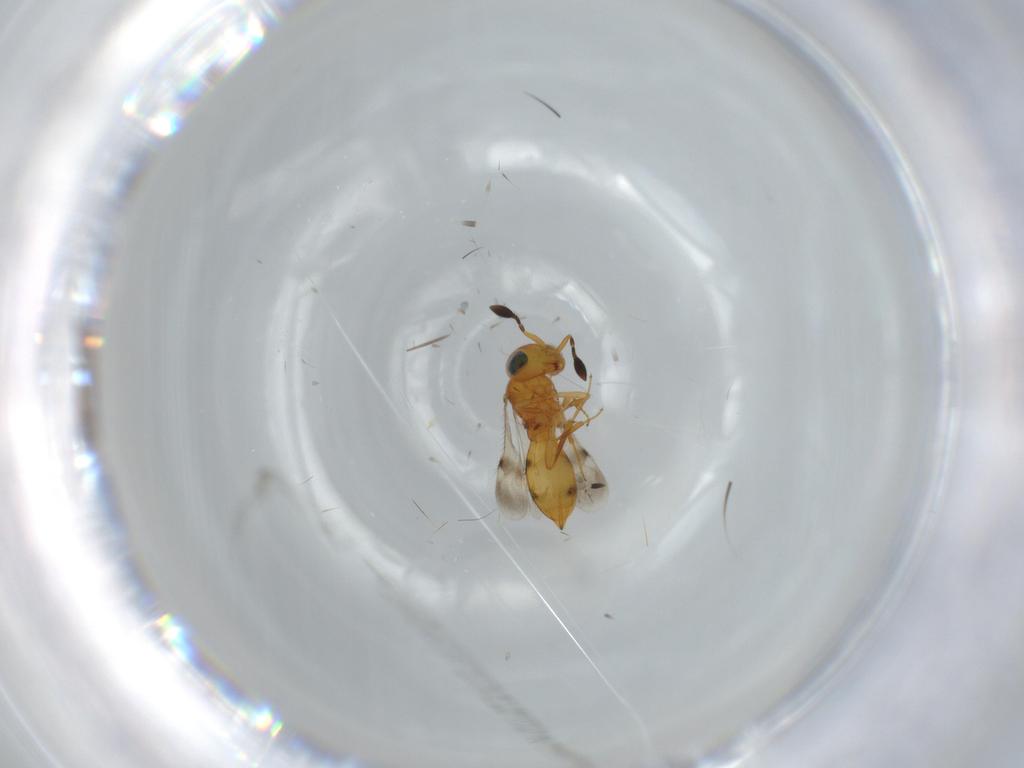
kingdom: Animalia
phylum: Arthropoda
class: Insecta
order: Hymenoptera
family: Scelionidae
